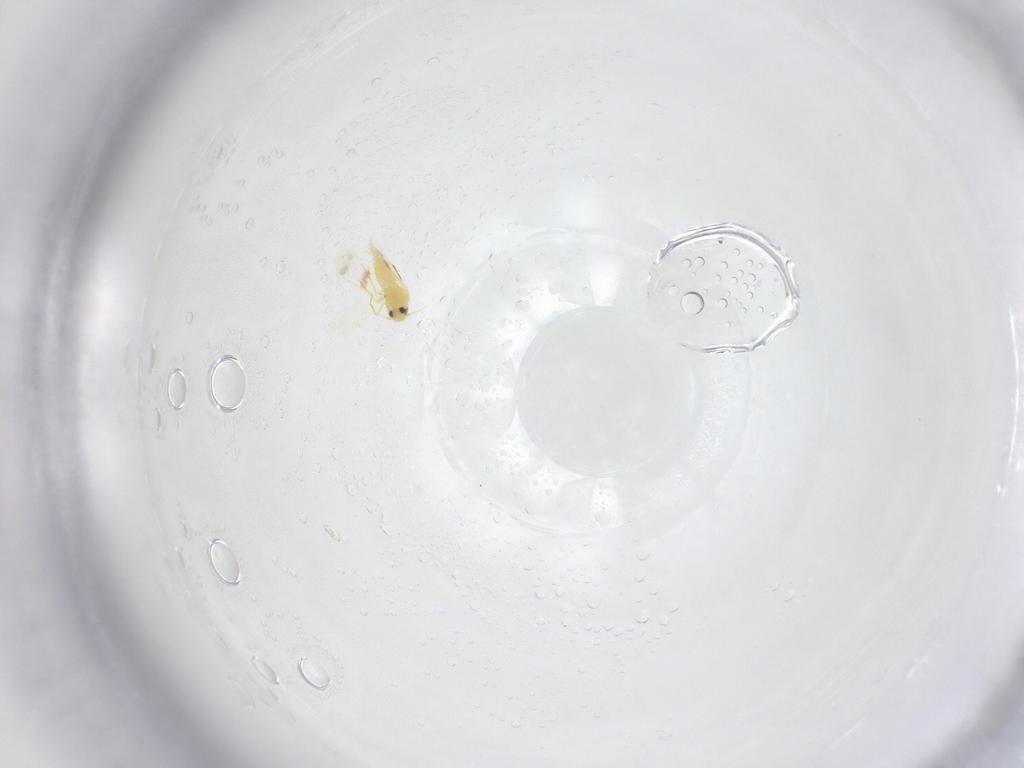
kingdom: Animalia
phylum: Arthropoda
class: Insecta
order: Hemiptera
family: Aleyrodidae
